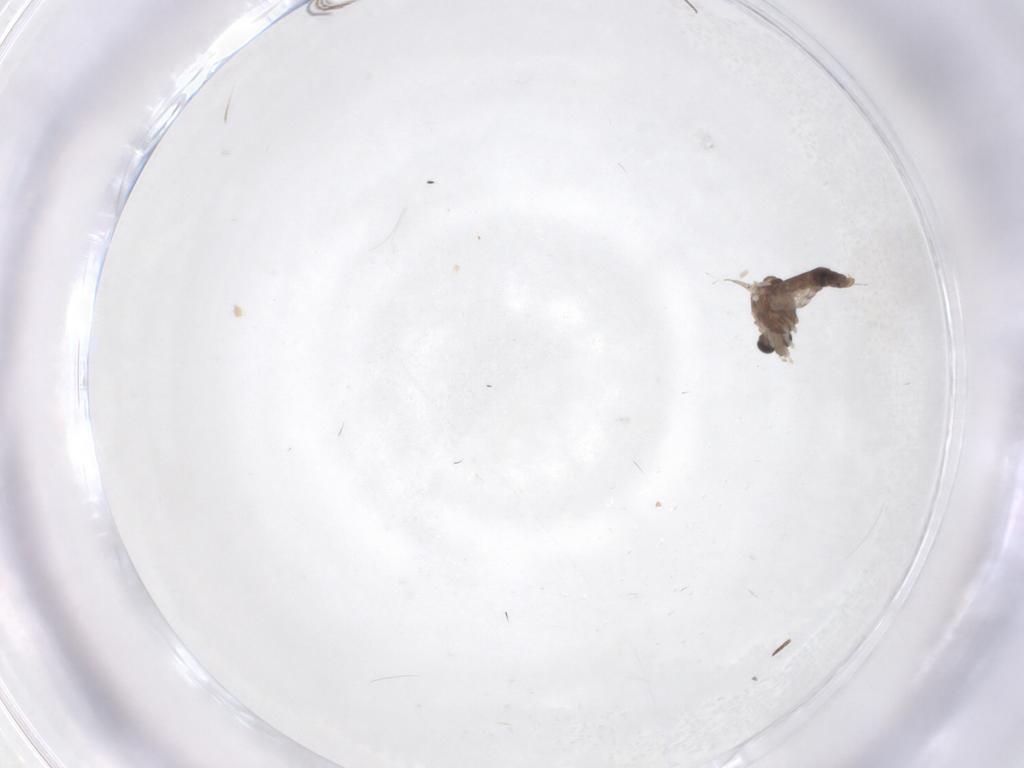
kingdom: Animalia
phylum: Arthropoda
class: Insecta
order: Diptera
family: Chironomidae
